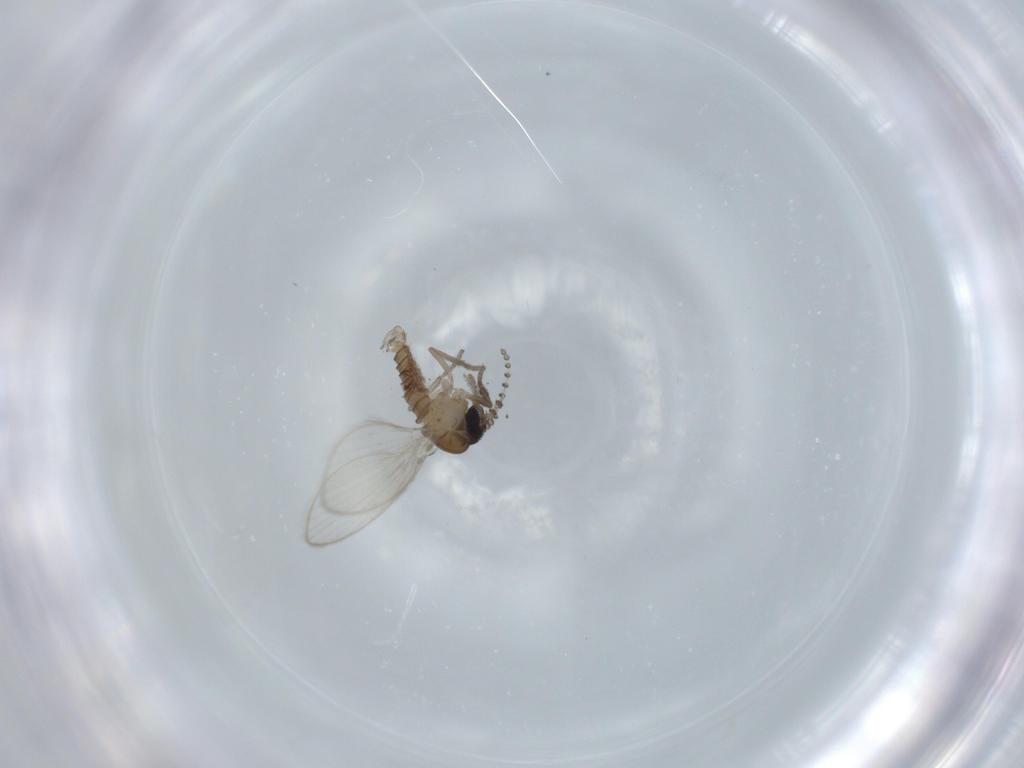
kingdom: Animalia
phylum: Arthropoda
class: Insecta
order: Diptera
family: Psychodidae
